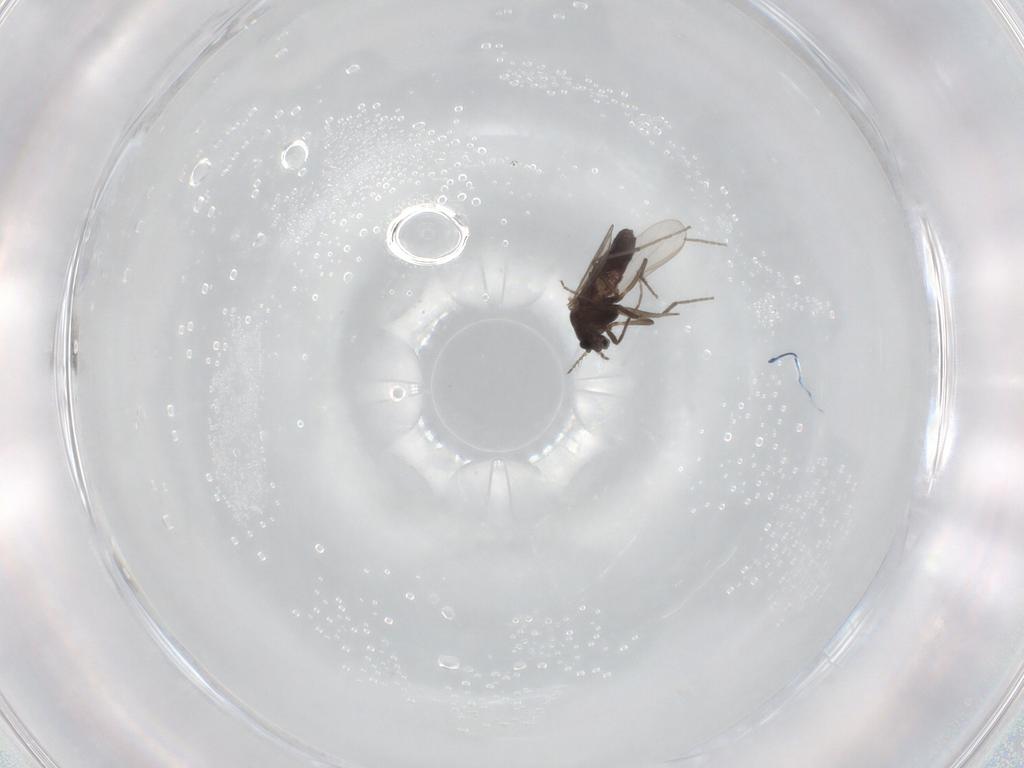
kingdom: Animalia
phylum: Arthropoda
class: Insecta
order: Diptera
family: Chironomidae
